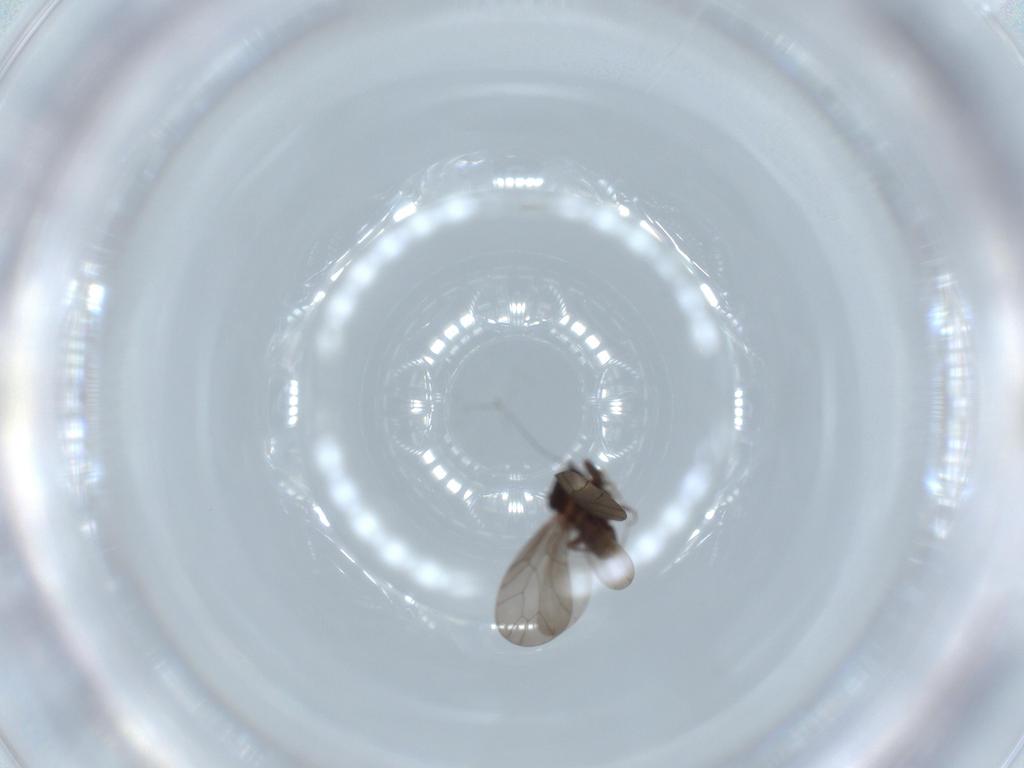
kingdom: Animalia
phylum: Arthropoda
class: Insecta
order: Psocodea
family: Lepidopsocidae
